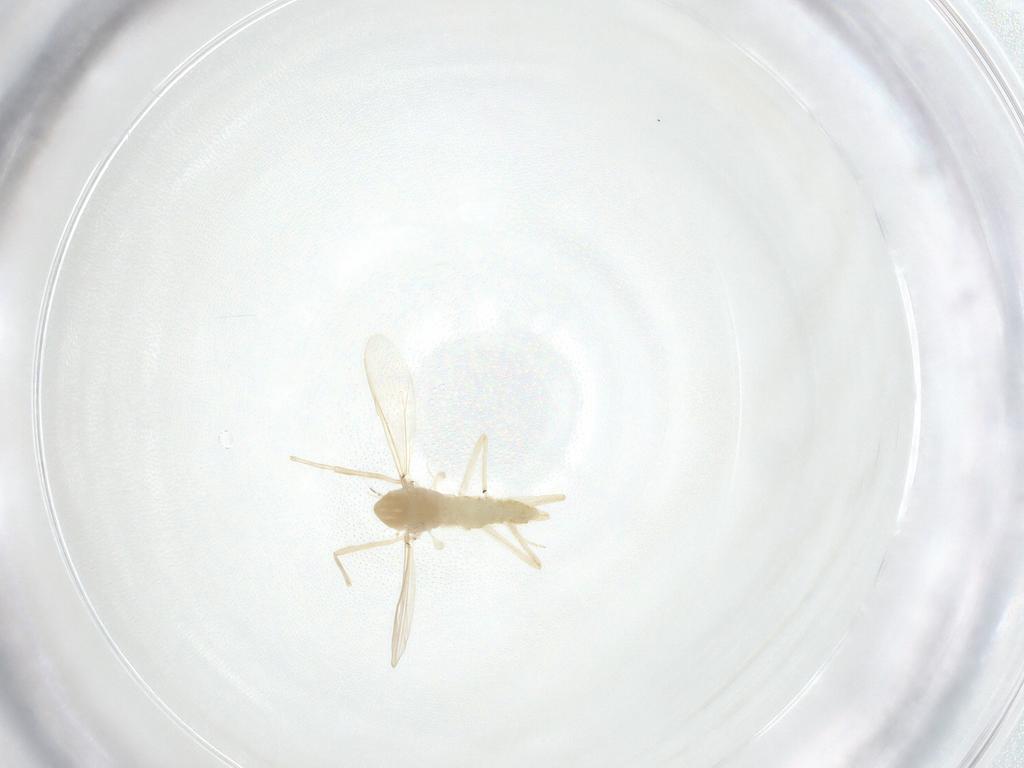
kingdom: Animalia
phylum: Arthropoda
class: Insecta
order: Diptera
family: Chironomidae
